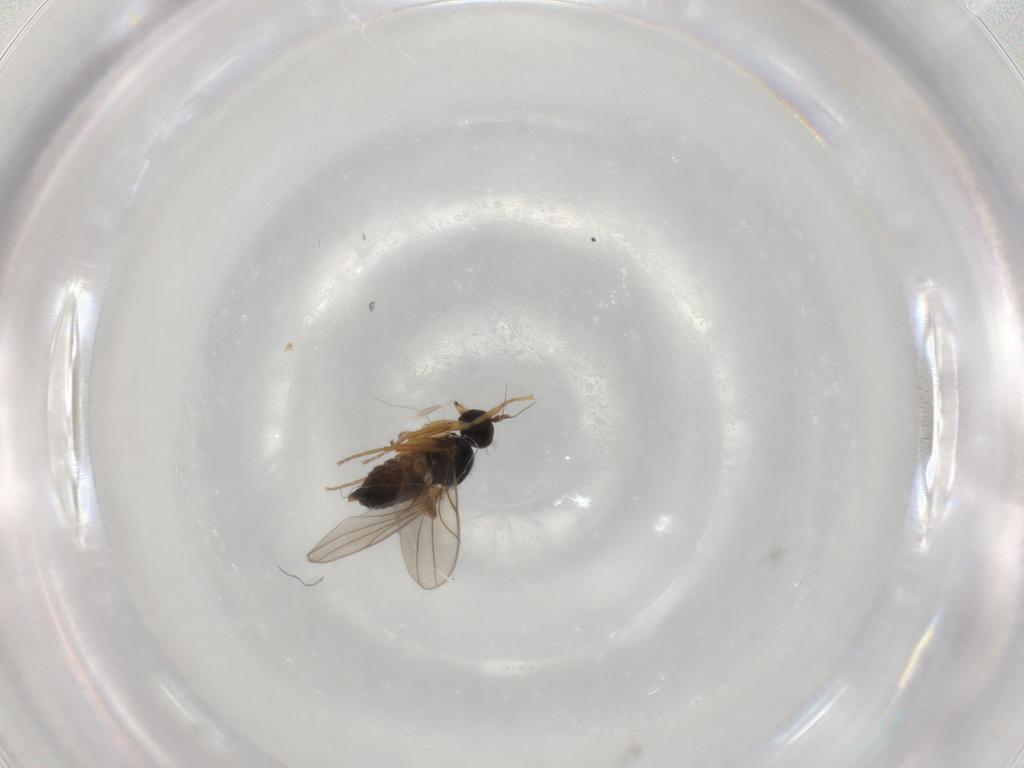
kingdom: Animalia
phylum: Arthropoda
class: Insecta
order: Diptera
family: Hybotidae
